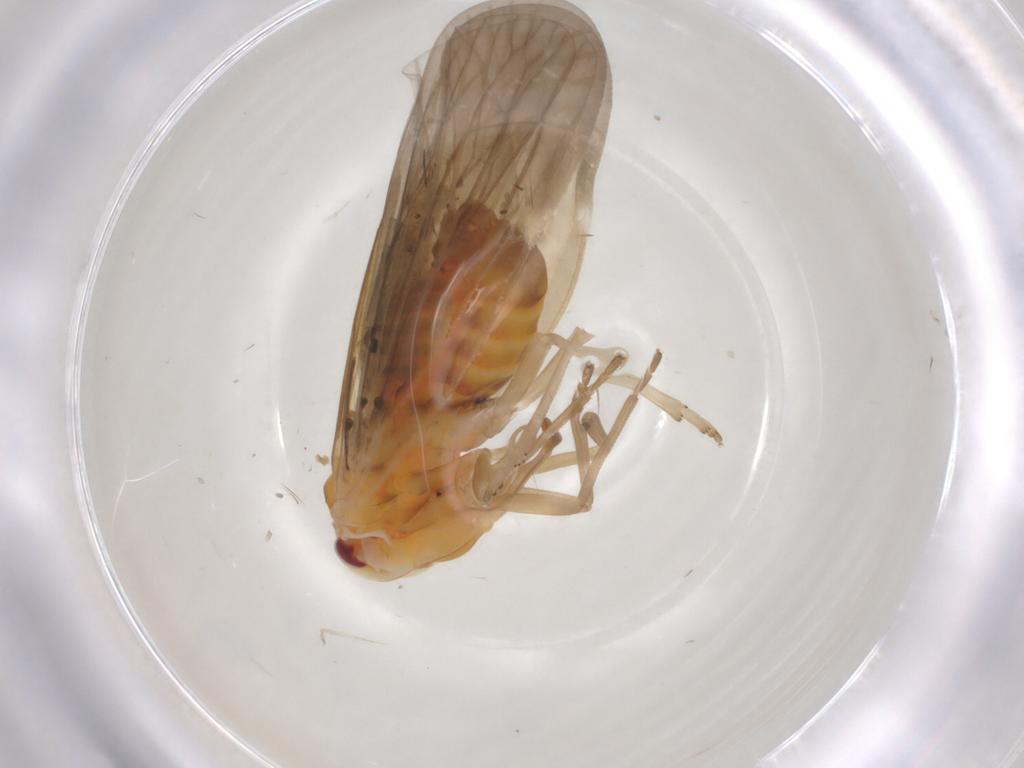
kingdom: Animalia
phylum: Arthropoda
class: Insecta
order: Hemiptera
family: Derbidae
